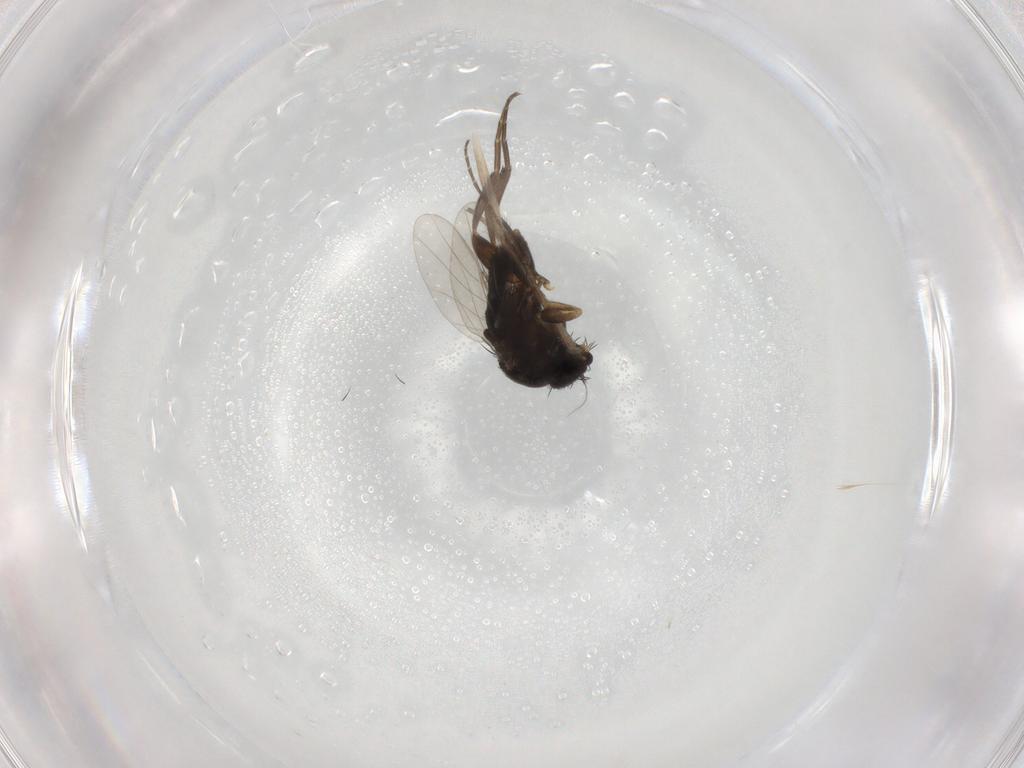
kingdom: Animalia
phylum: Arthropoda
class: Insecta
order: Diptera
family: Phoridae
